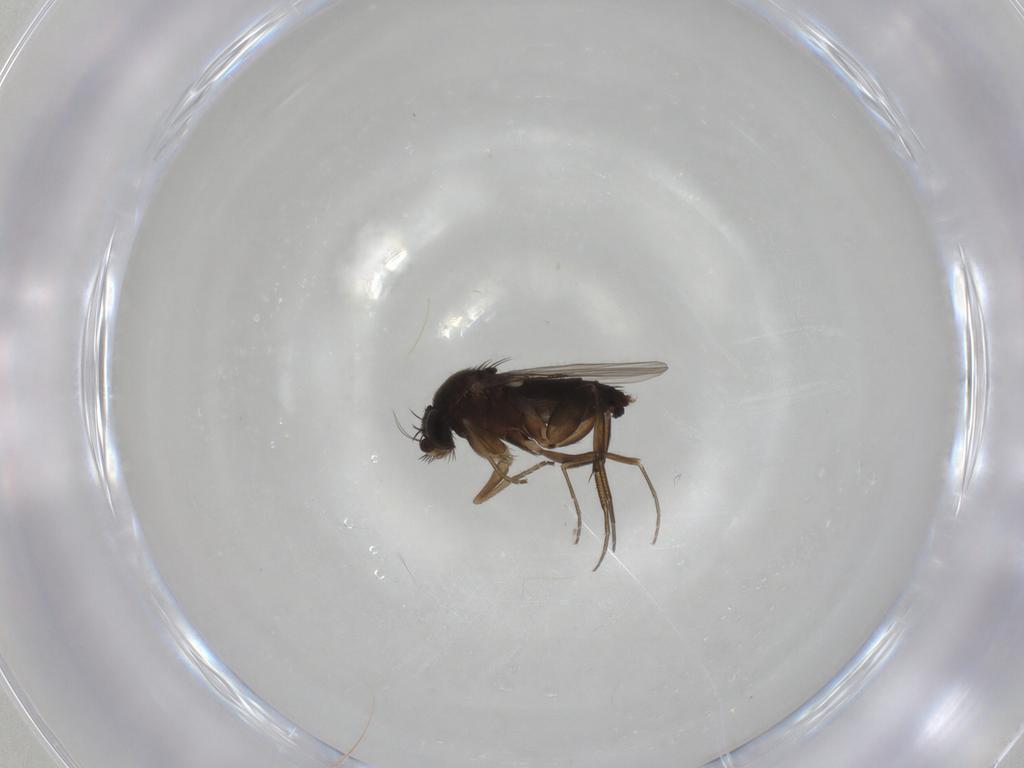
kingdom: Animalia
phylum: Arthropoda
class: Insecta
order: Diptera
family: Phoridae
